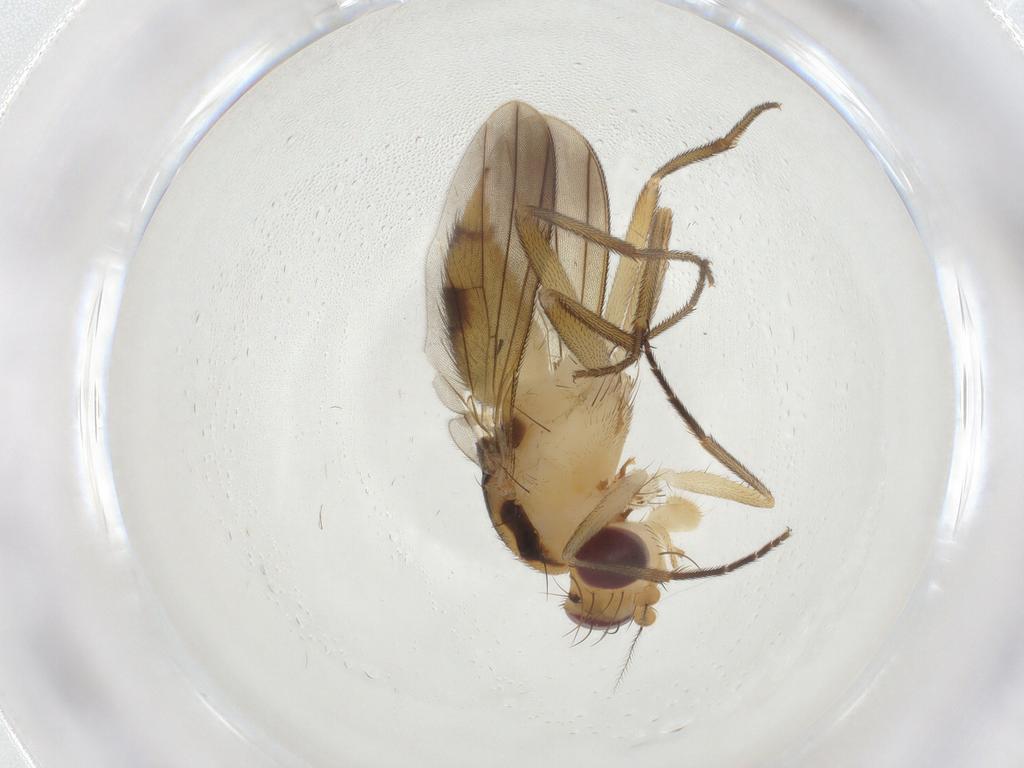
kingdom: Animalia
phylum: Arthropoda
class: Insecta
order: Diptera
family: Clusiidae
